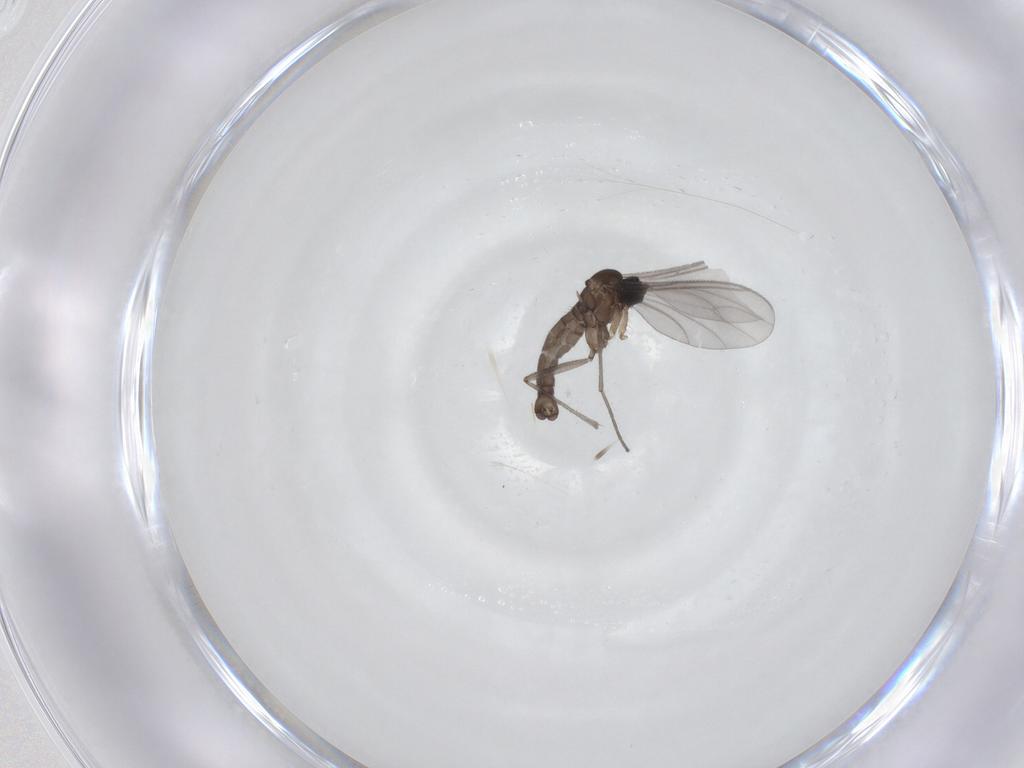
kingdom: Animalia
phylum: Arthropoda
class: Insecta
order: Diptera
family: Sciaridae
